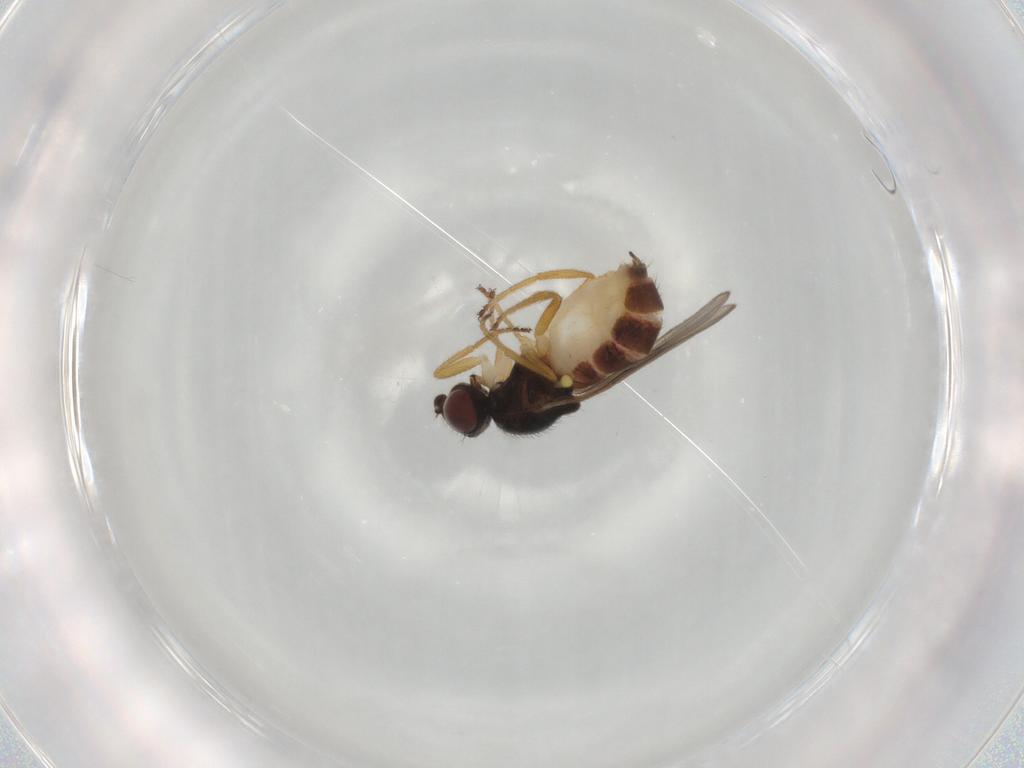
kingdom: Animalia
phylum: Arthropoda
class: Insecta
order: Diptera
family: Chloropidae
